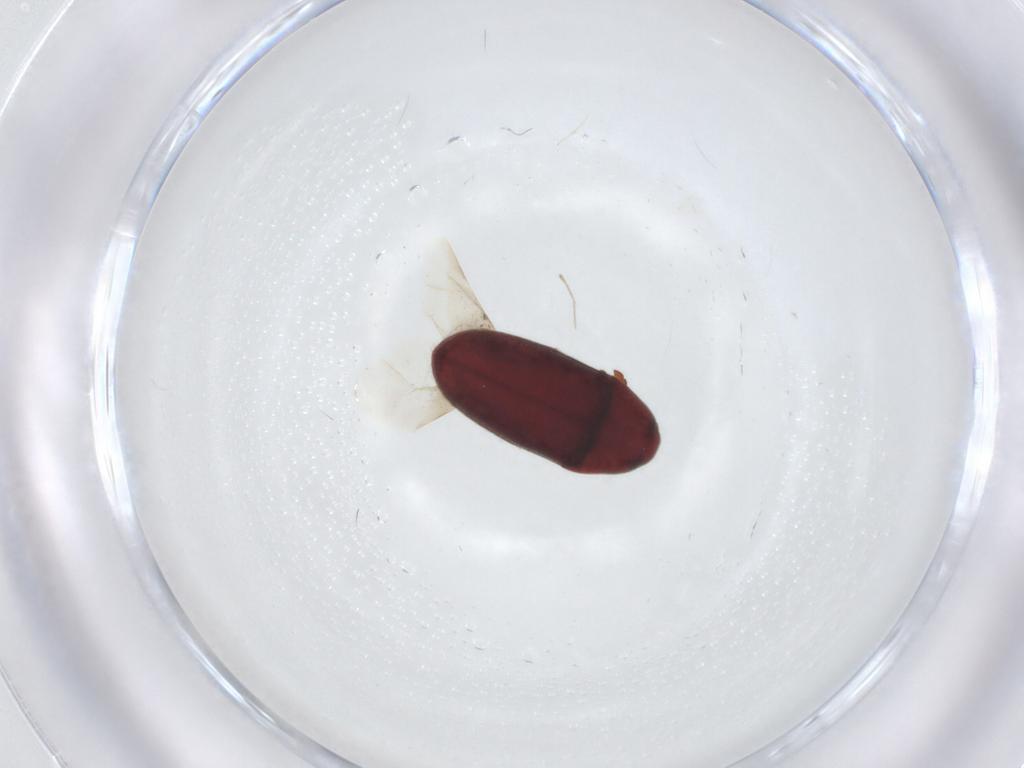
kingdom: Animalia
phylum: Arthropoda
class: Insecta
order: Coleoptera
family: Throscidae
